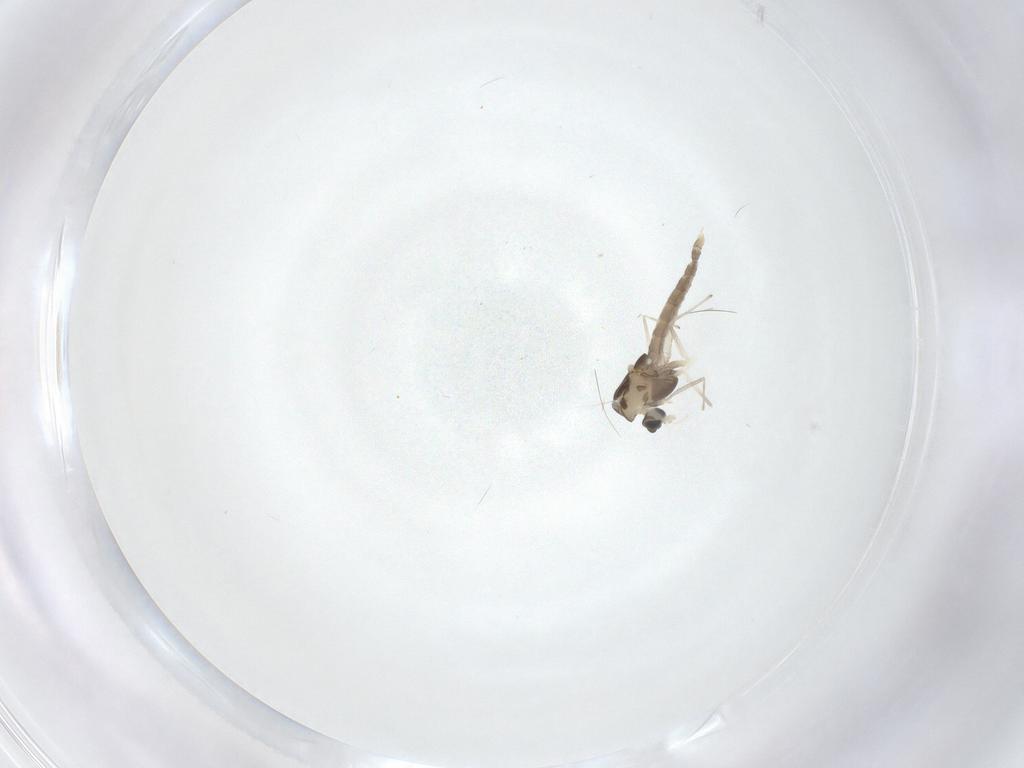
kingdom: Animalia
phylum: Arthropoda
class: Insecta
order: Diptera
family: Chironomidae
